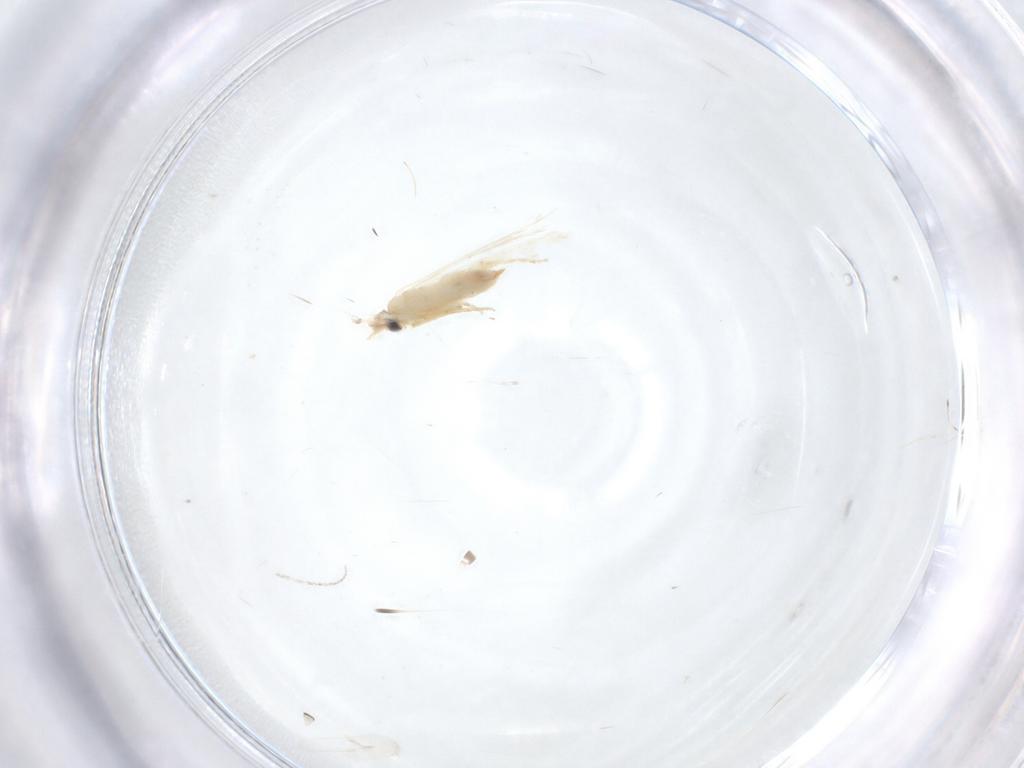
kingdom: Animalia
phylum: Arthropoda
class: Insecta
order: Lepidoptera
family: Nepticulidae
